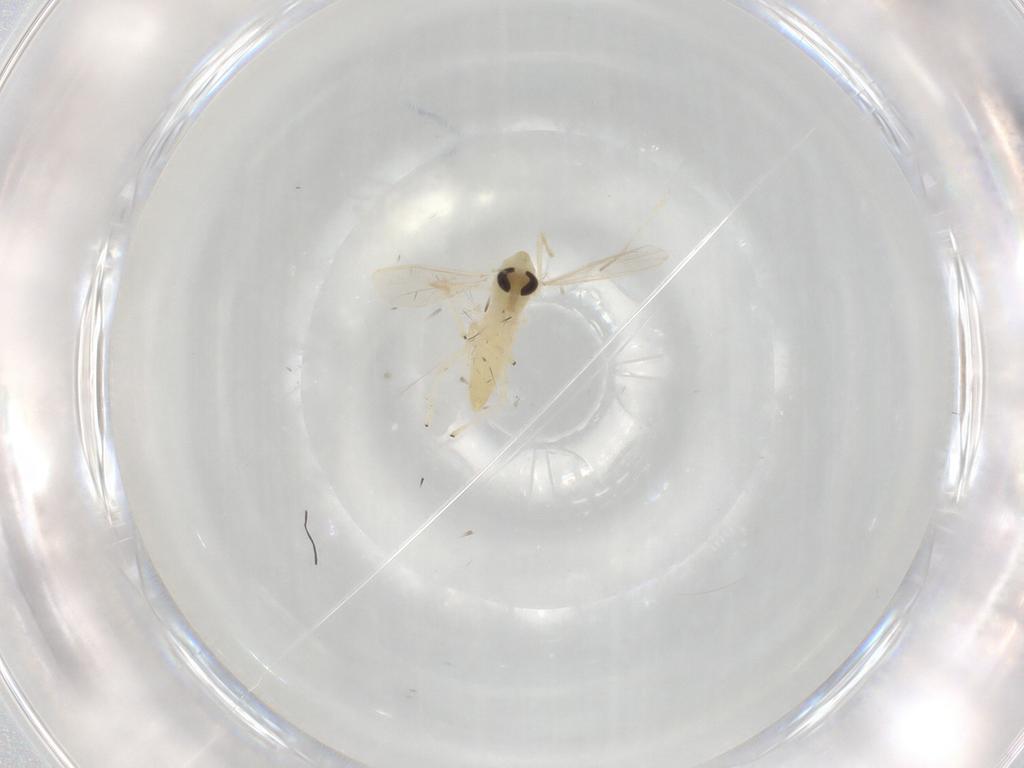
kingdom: Animalia
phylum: Arthropoda
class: Insecta
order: Diptera
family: Chironomidae
